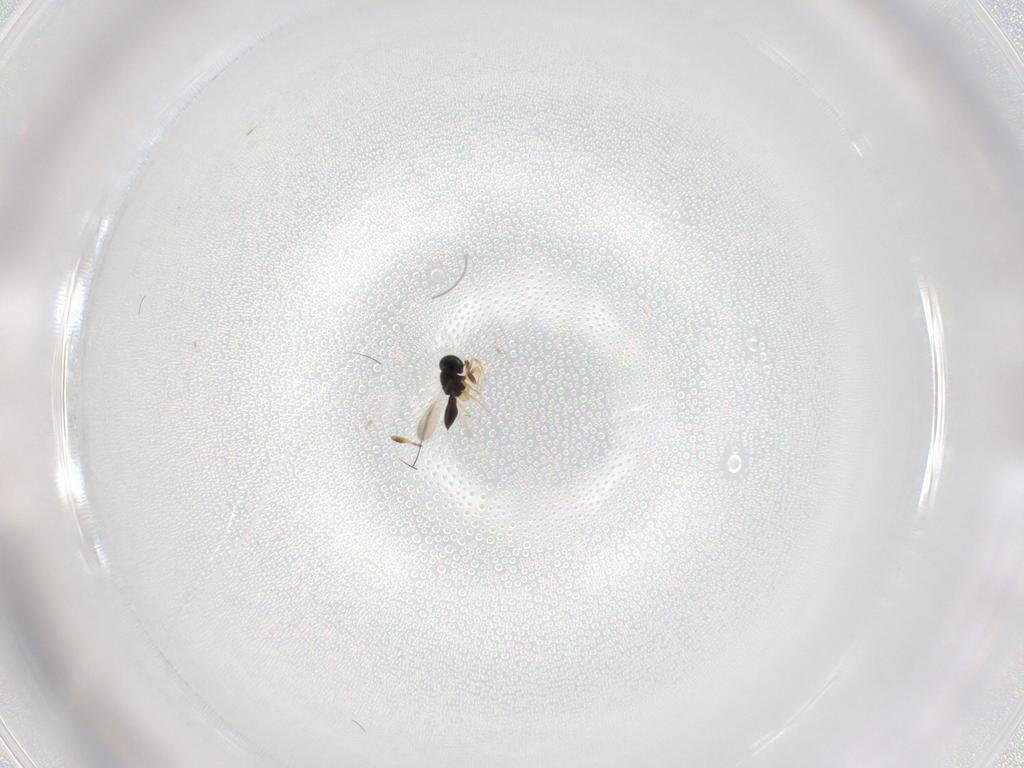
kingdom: Animalia
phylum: Arthropoda
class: Insecta
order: Hymenoptera
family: Scelionidae
